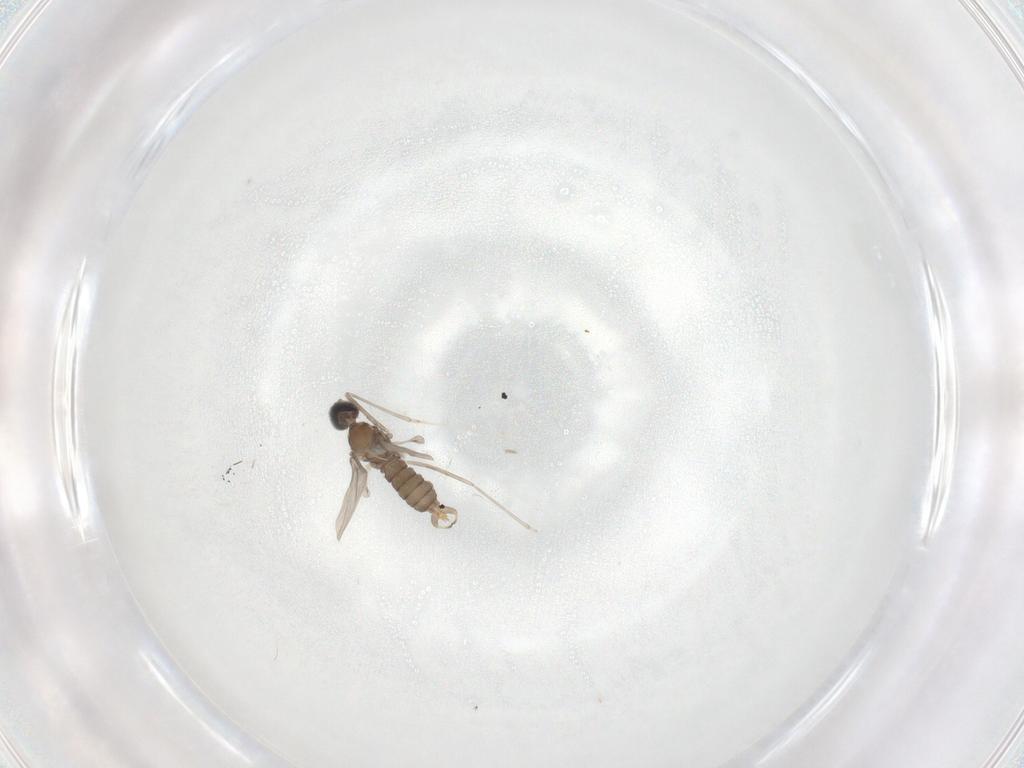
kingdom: Animalia
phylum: Arthropoda
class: Insecta
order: Diptera
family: Cecidomyiidae
